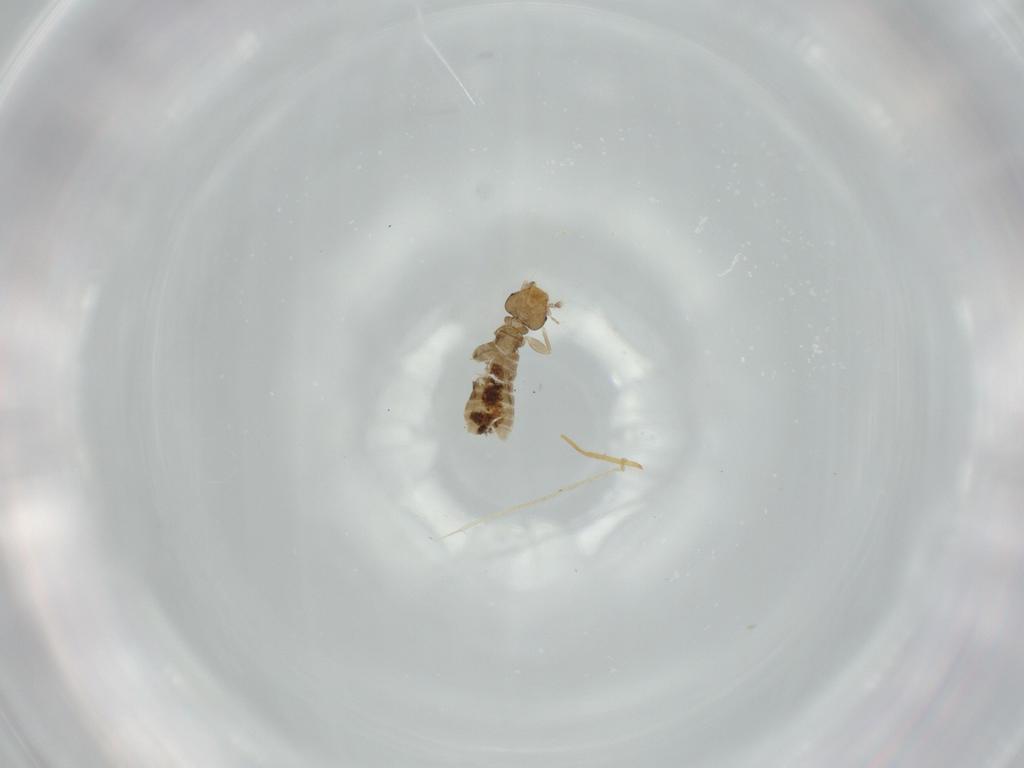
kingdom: Animalia
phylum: Arthropoda
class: Insecta
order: Psocodea
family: Liposcelididae
